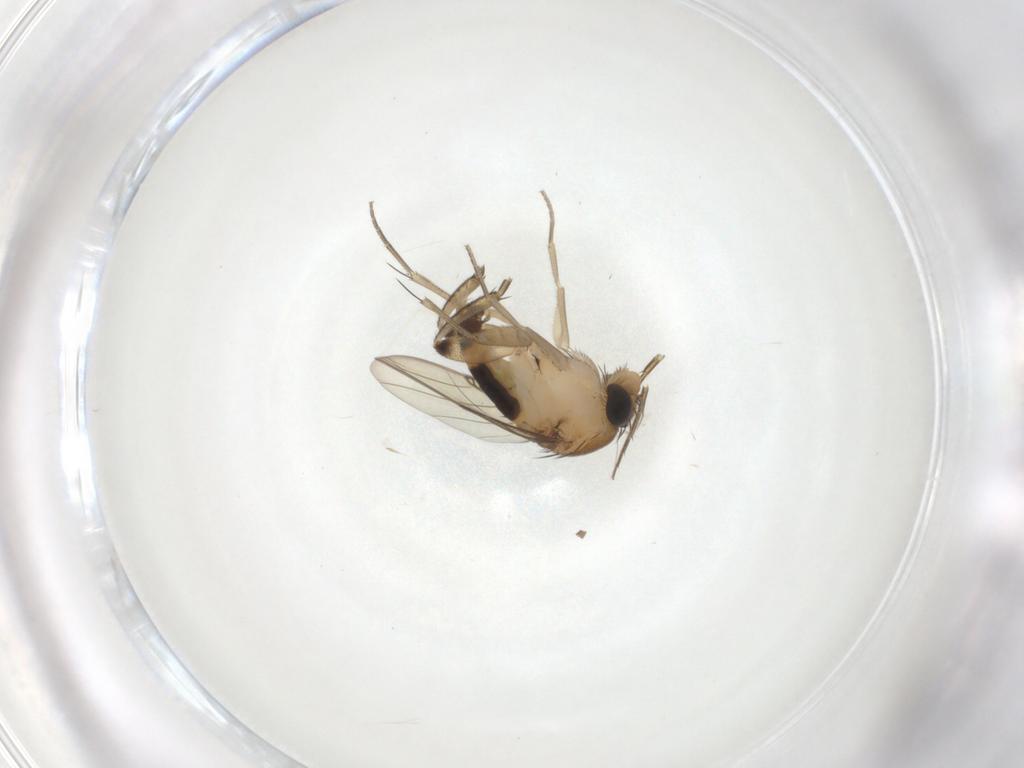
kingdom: Animalia
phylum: Arthropoda
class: Insecta
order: Diptera
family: Phoridae
